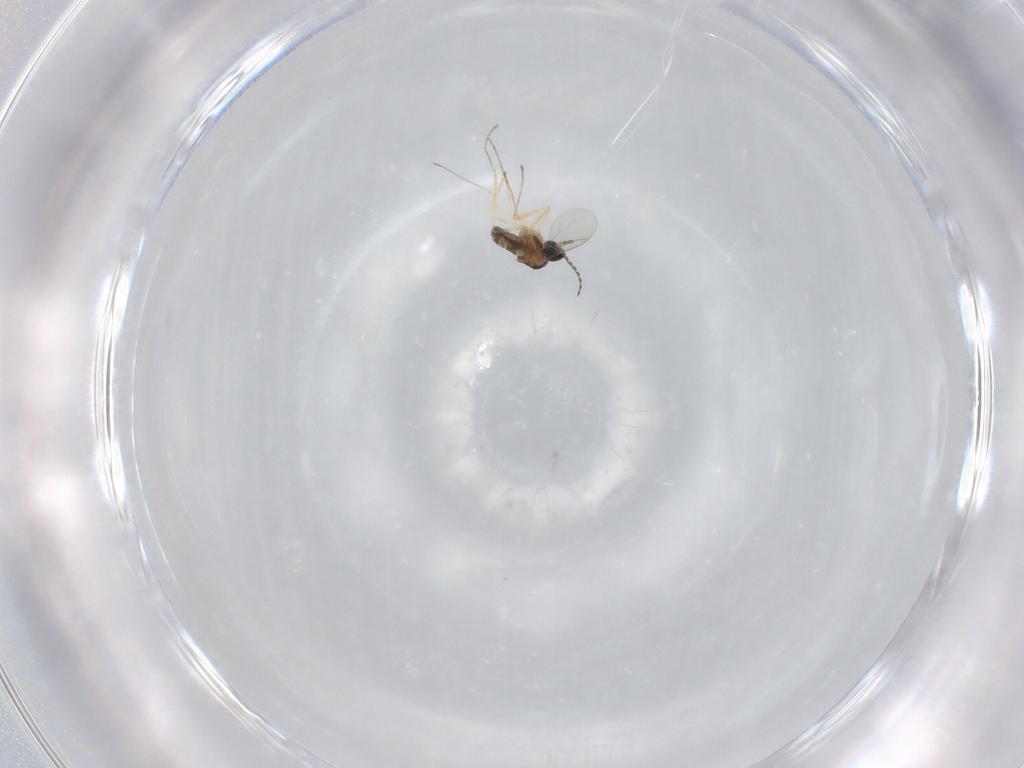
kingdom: Animalia
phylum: Arthropoda
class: Insecta
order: Diptera
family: Cecidomyiidae
